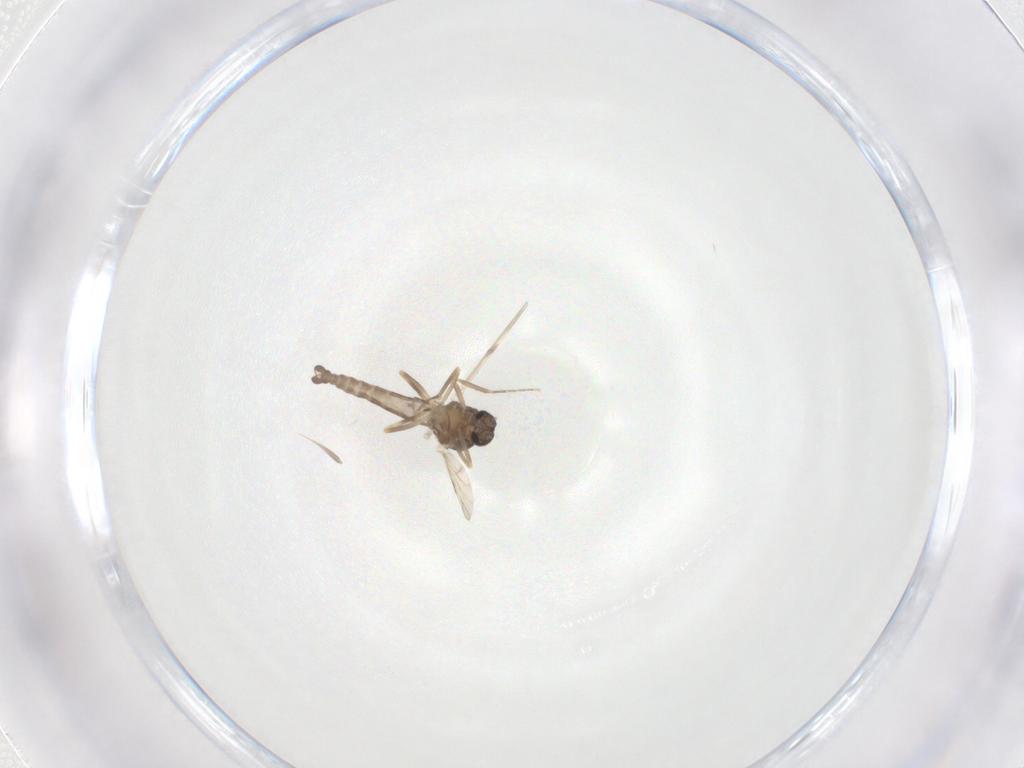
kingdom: Animalia
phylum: Arthropoda
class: Insecta
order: Diptera
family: Ceratopogonidae
